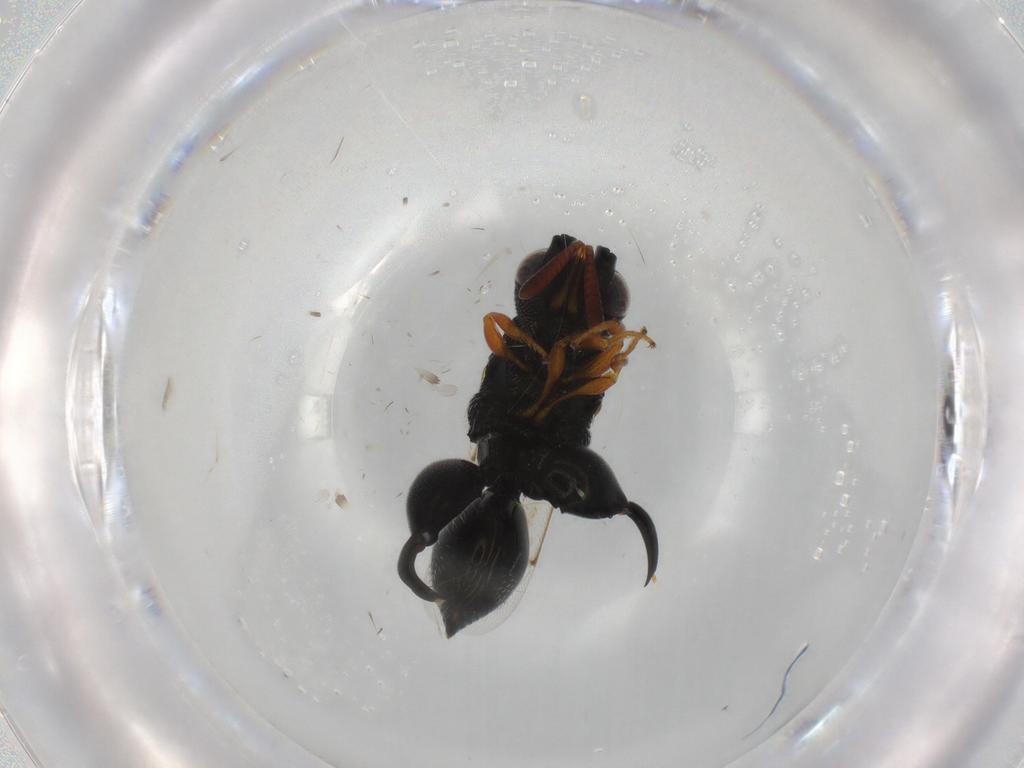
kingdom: Animalia
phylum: Arthropoda
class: Insecta
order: Hymenoptera
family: Chalcididae
